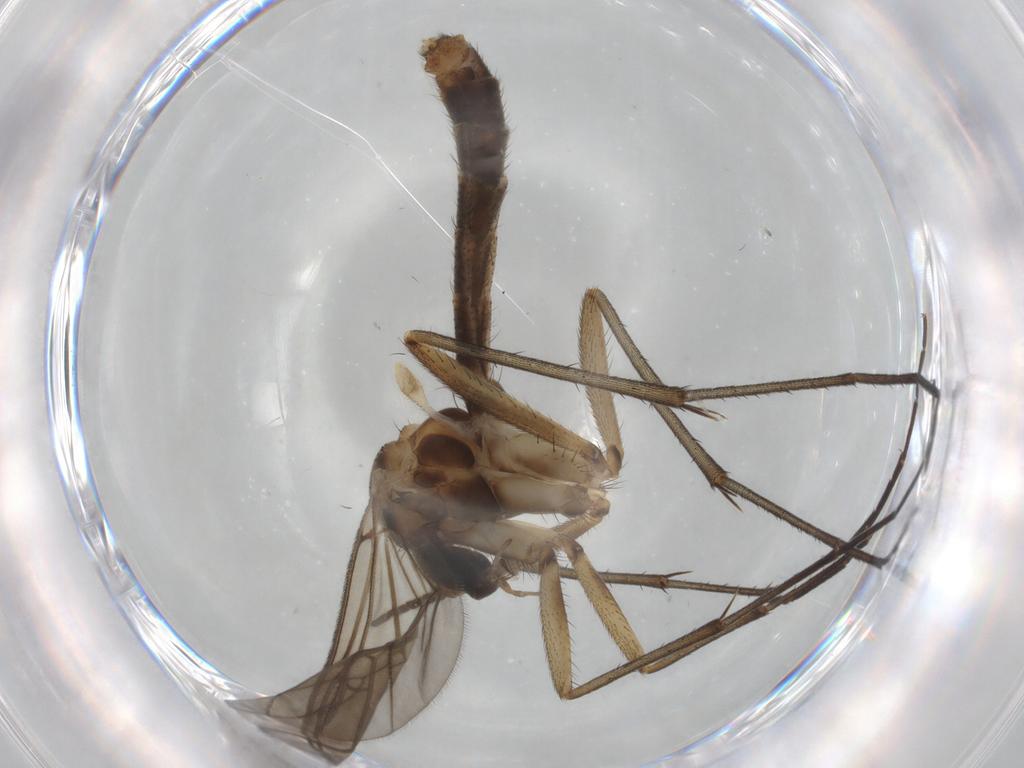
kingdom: Animalia
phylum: Arthropoda
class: Insecta
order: Diptera
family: Mycetophilidae
